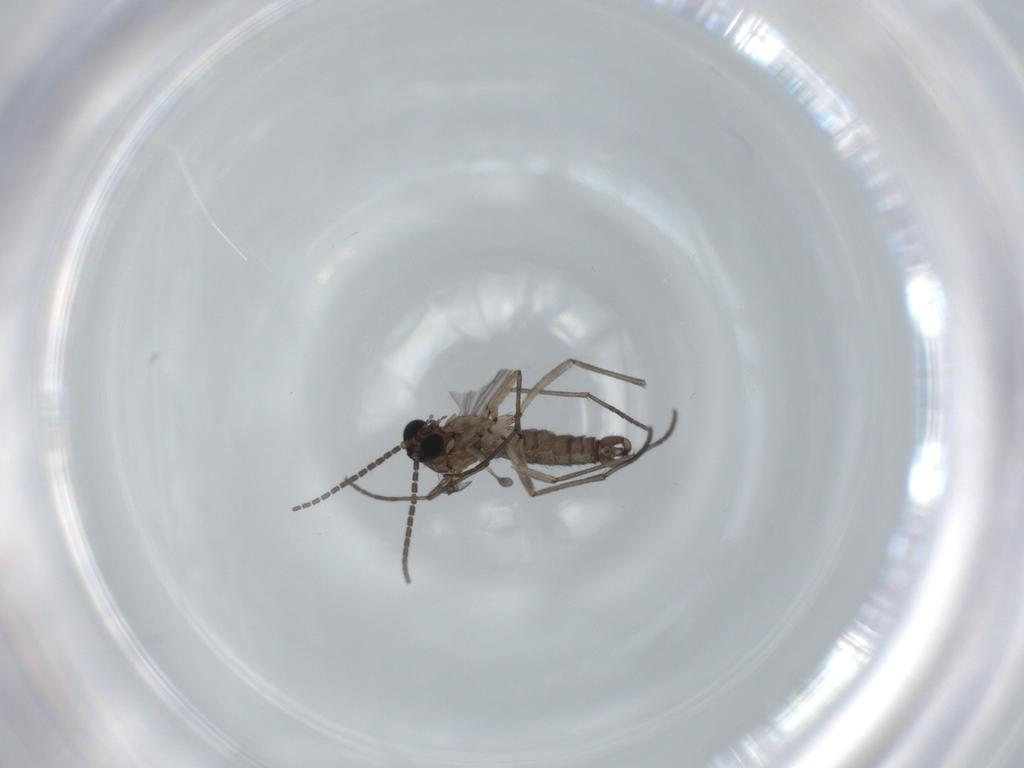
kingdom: Animalia
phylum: Arthropoda
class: Insecta
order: Diptera
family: Sciaridae
